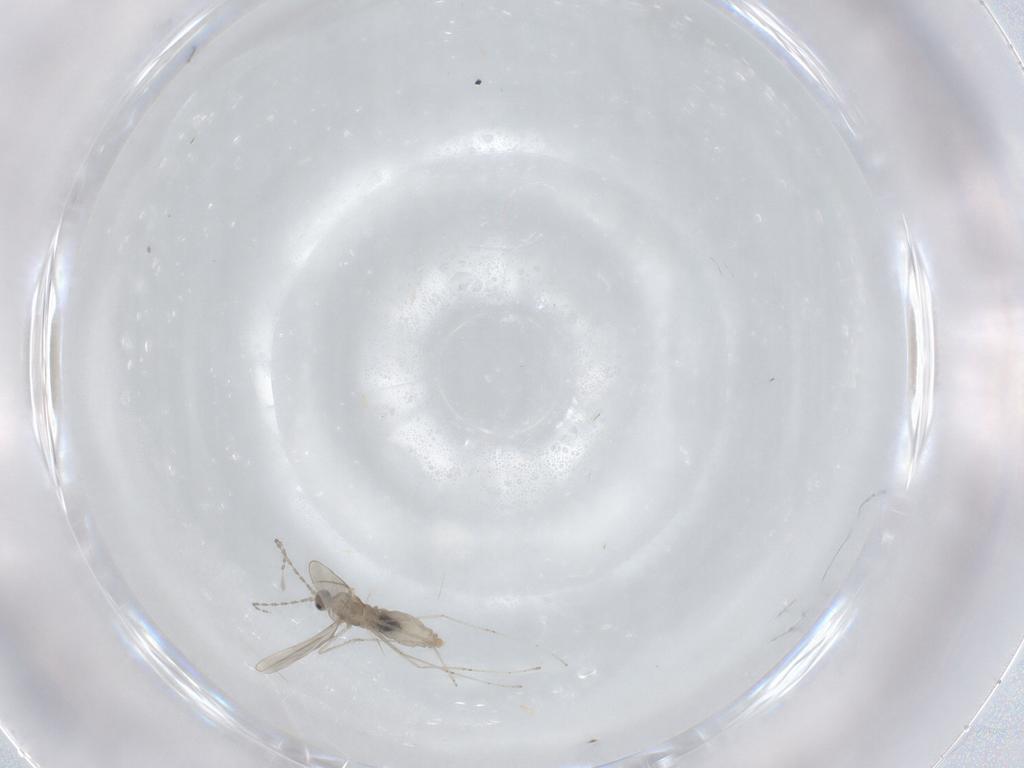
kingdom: Animalia
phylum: Arthropoda
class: Insecta
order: Diptera
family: Cecidomyiidae
